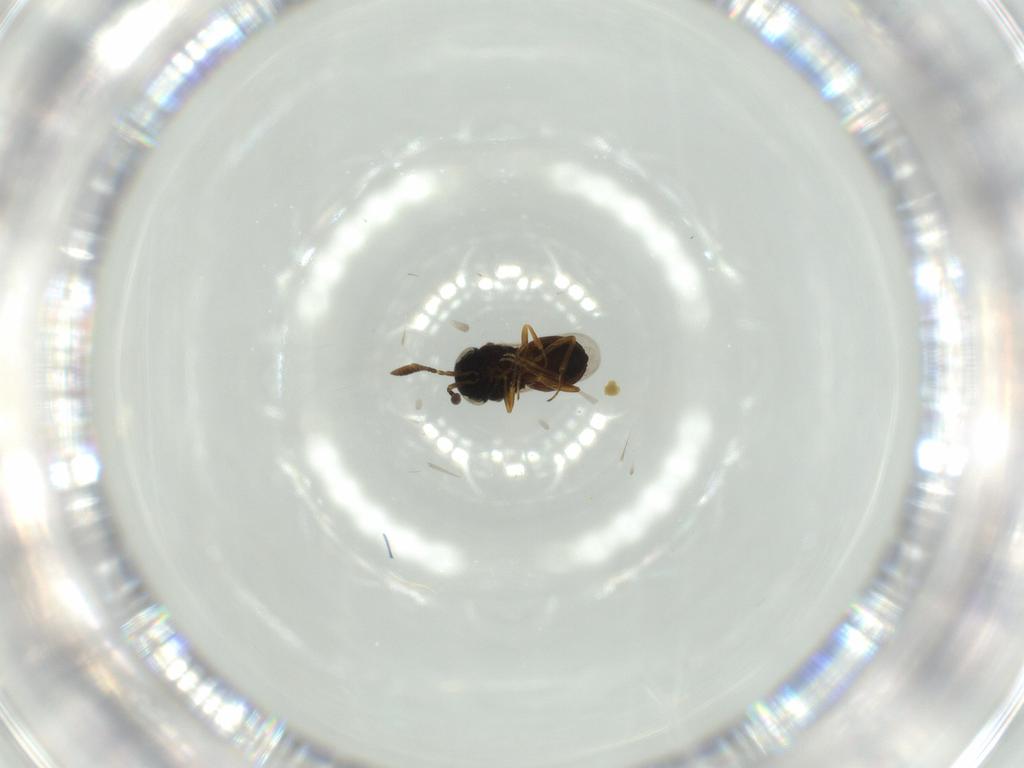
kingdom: Animalia
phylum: Arthropoda
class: Insecta
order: Coleoptera
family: Curculionidae
